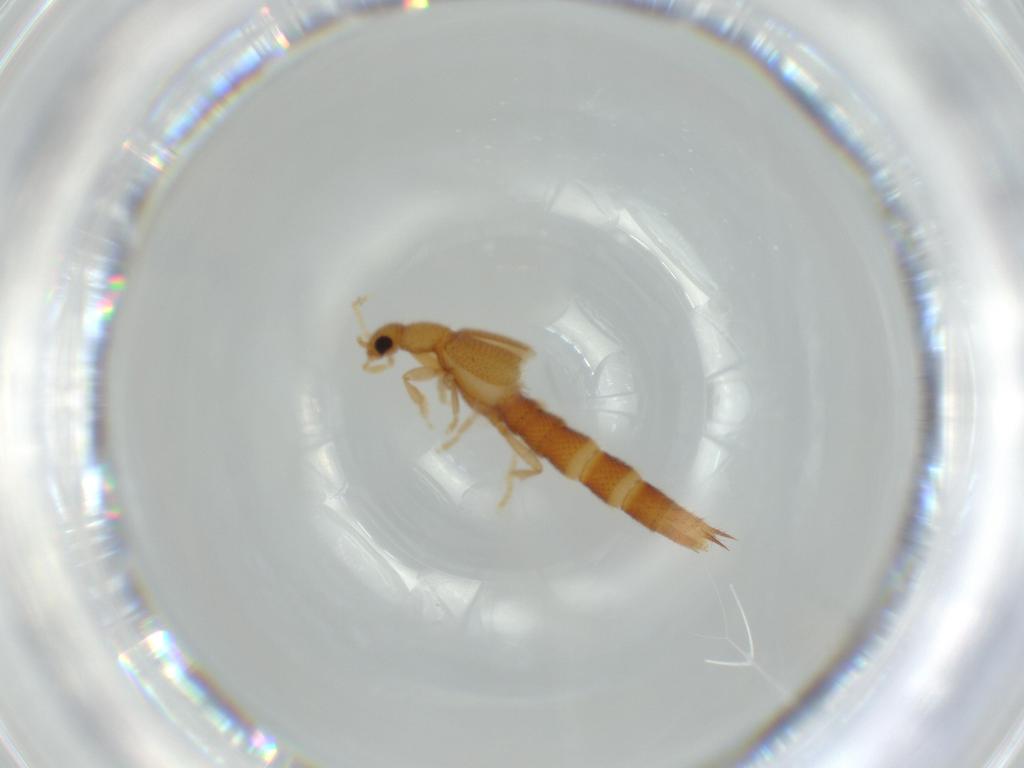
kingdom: Animalia
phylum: Arthropoda
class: Insecta
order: Coleoptera
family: Staphylinidae
